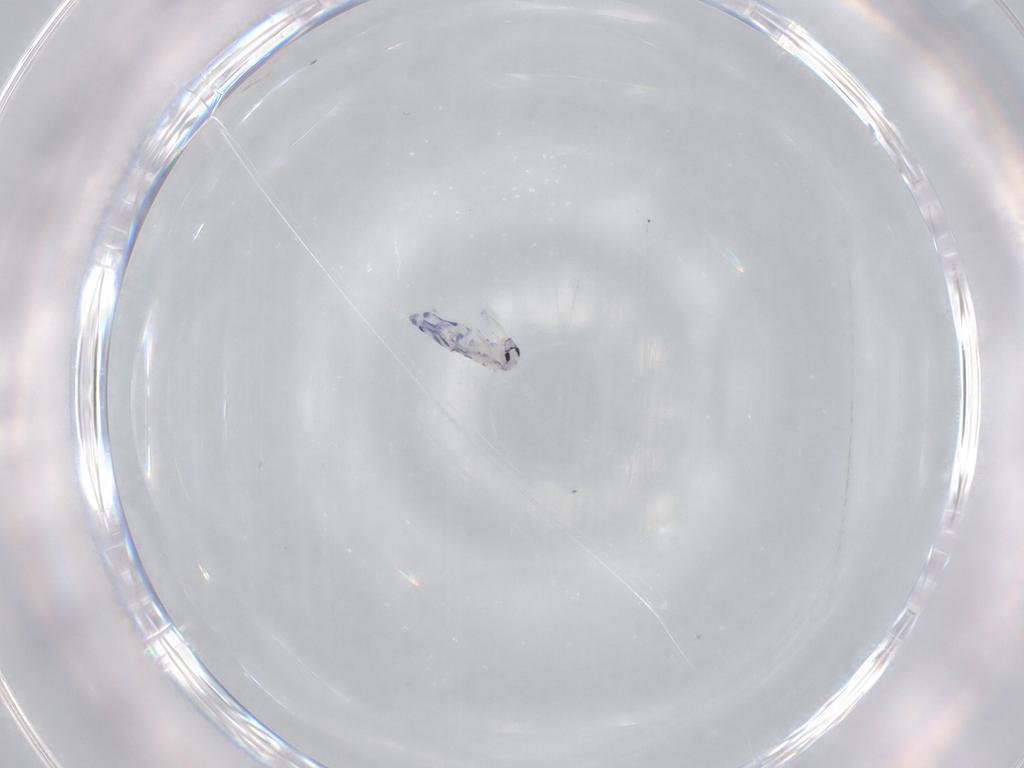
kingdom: Animalia
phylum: Arthropoda
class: Collembola
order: Entomobryomorpha
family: Entomobryidae
